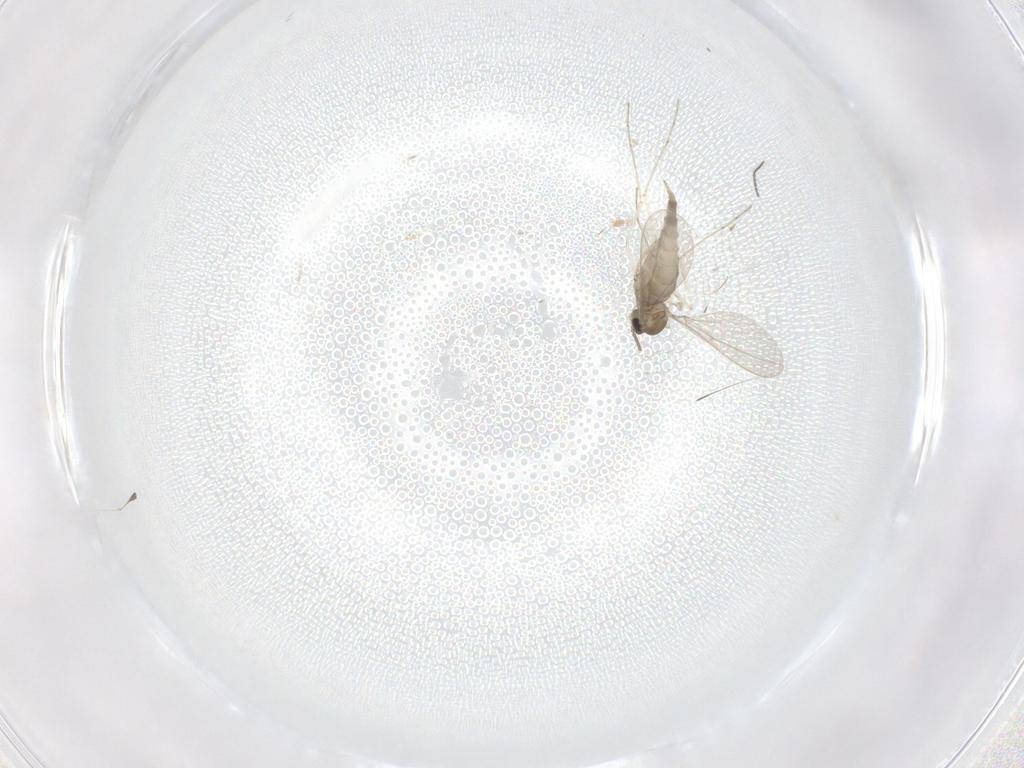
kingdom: Animalia
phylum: Arthropoda
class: Insecta
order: Diptera
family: Cecidomyiidae
